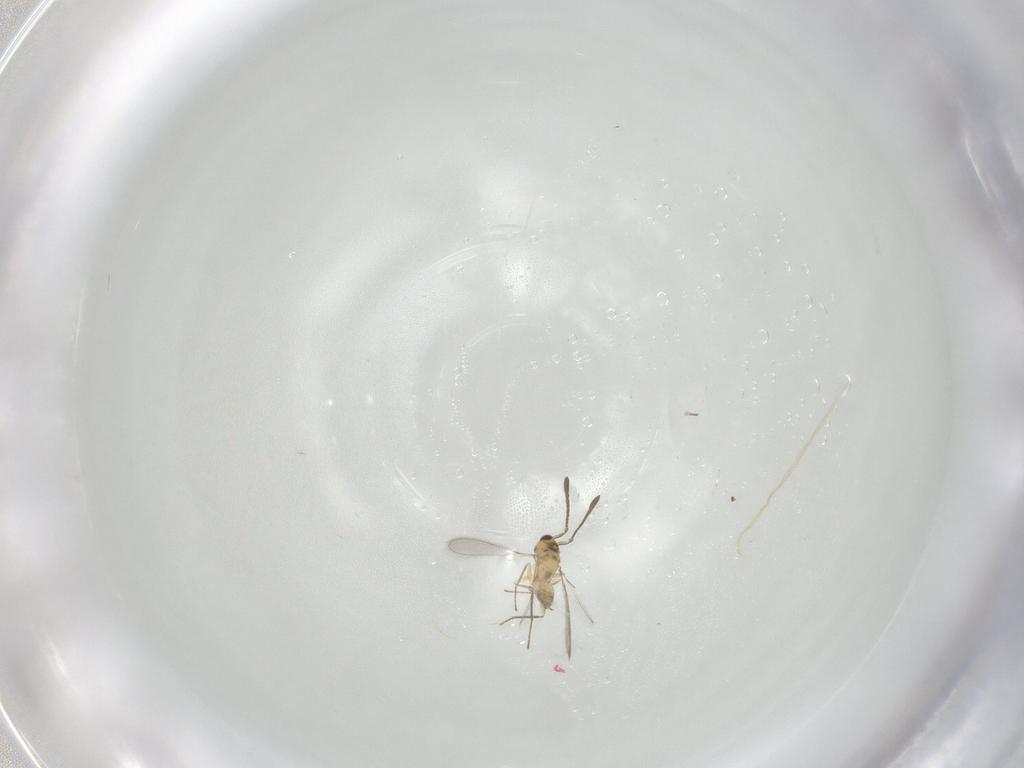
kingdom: Animalia
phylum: Arthropoda
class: Insecta
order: Hymenoptera
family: Mymaridae
